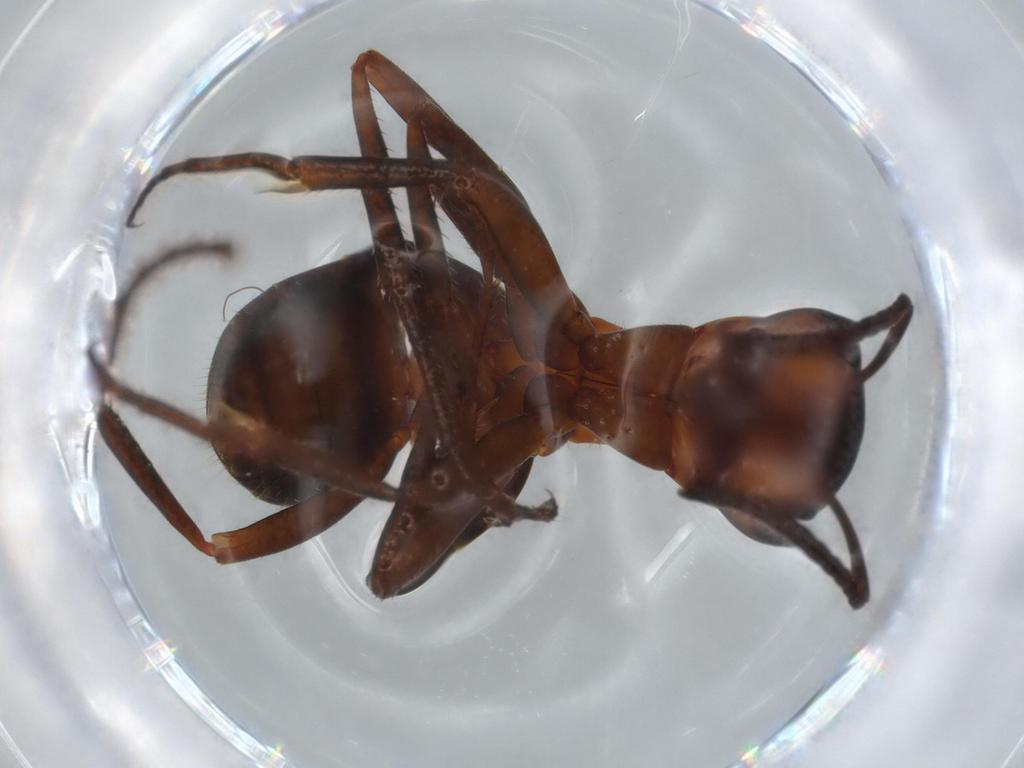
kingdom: Animalia
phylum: Arthropoda
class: Insecta
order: Hymenoptera
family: Formicidae
